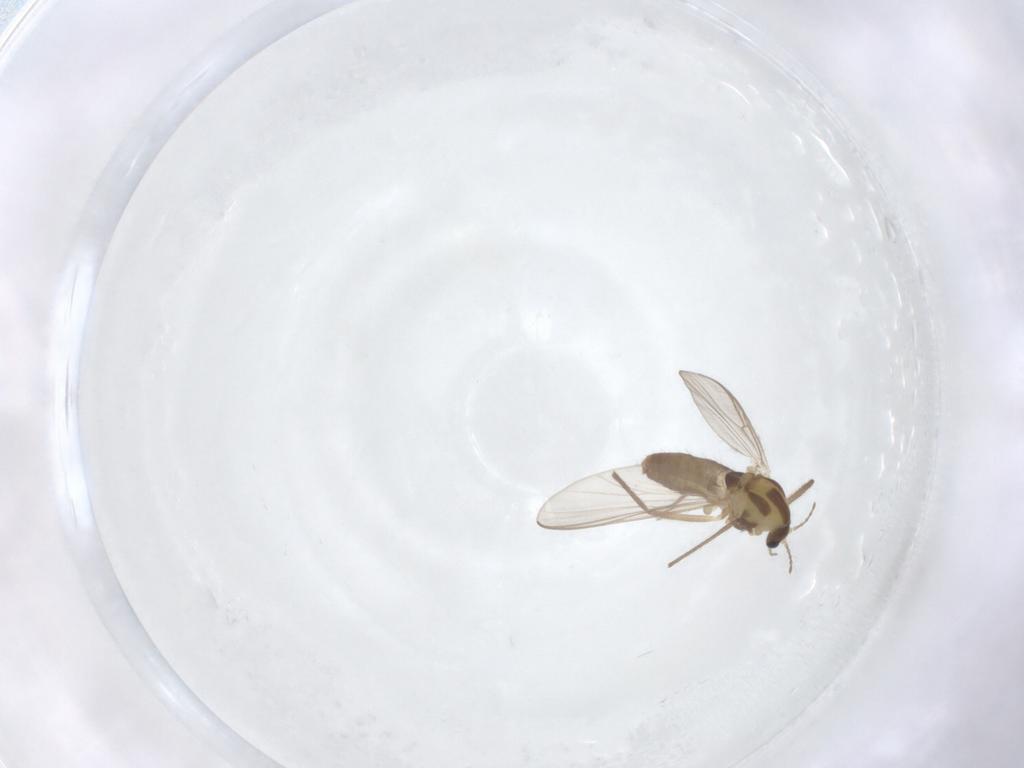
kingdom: Animalia
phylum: Arthropoda
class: Insecta
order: Diptera
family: Chironomidae
